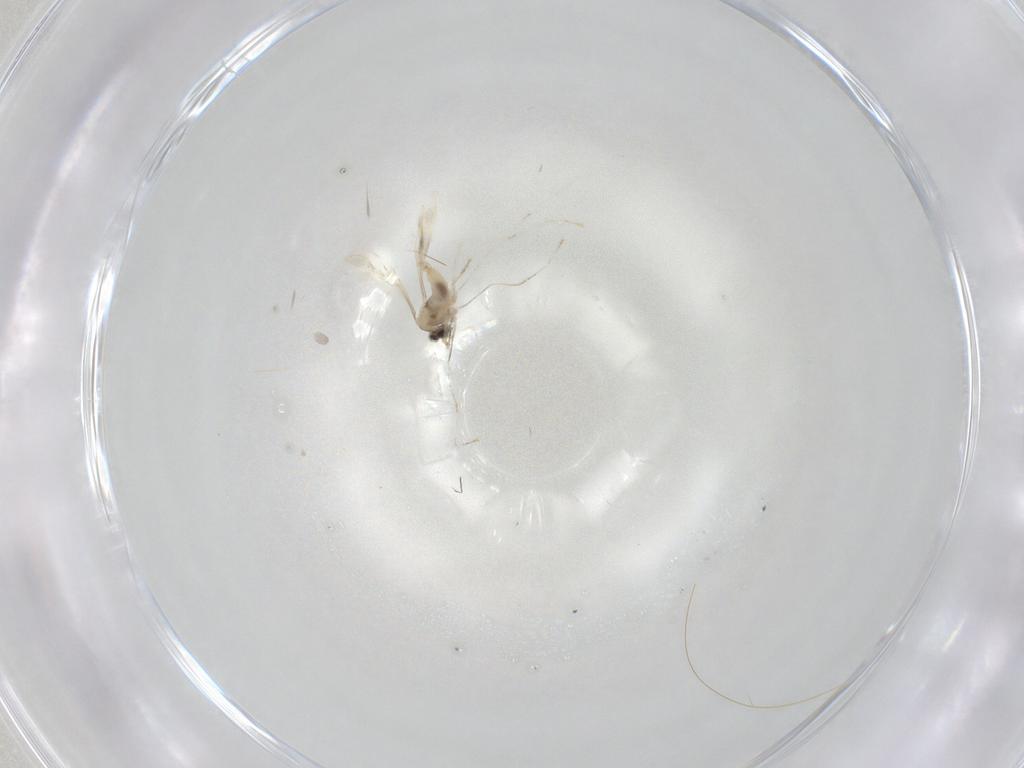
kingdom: Animalia
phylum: Arthropoda
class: Insecta
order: Diptera
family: Cecidomyiidae
